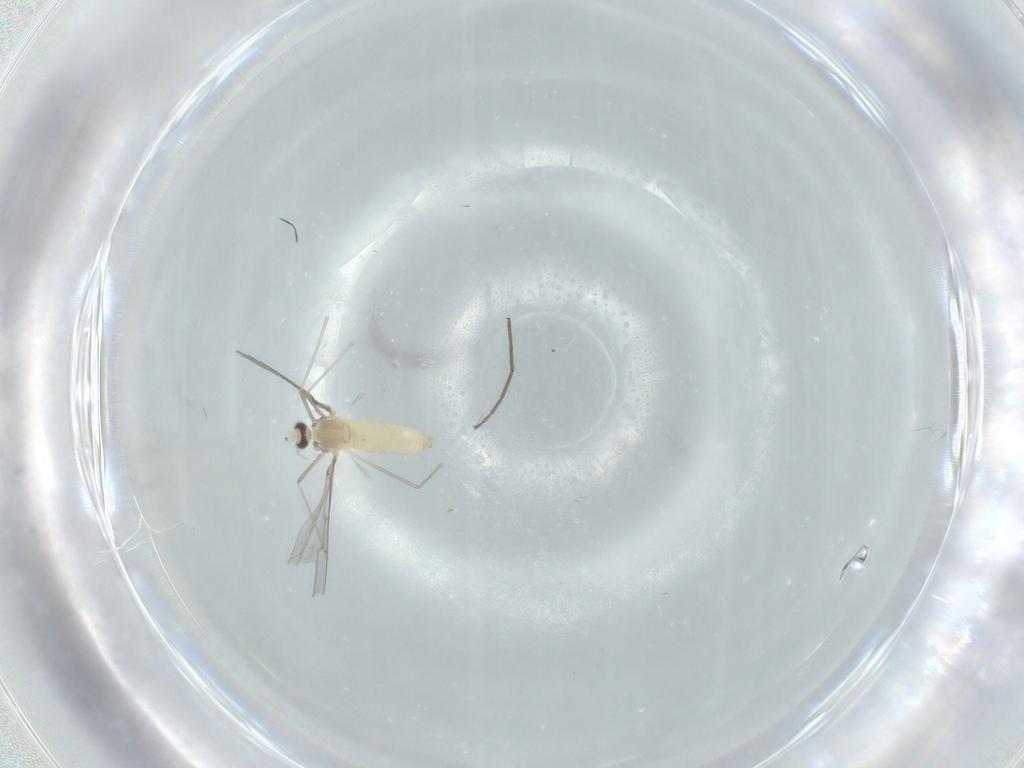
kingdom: Animalia
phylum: Arthropoda
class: Insecta
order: Diptera
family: Cecidomyiidae
